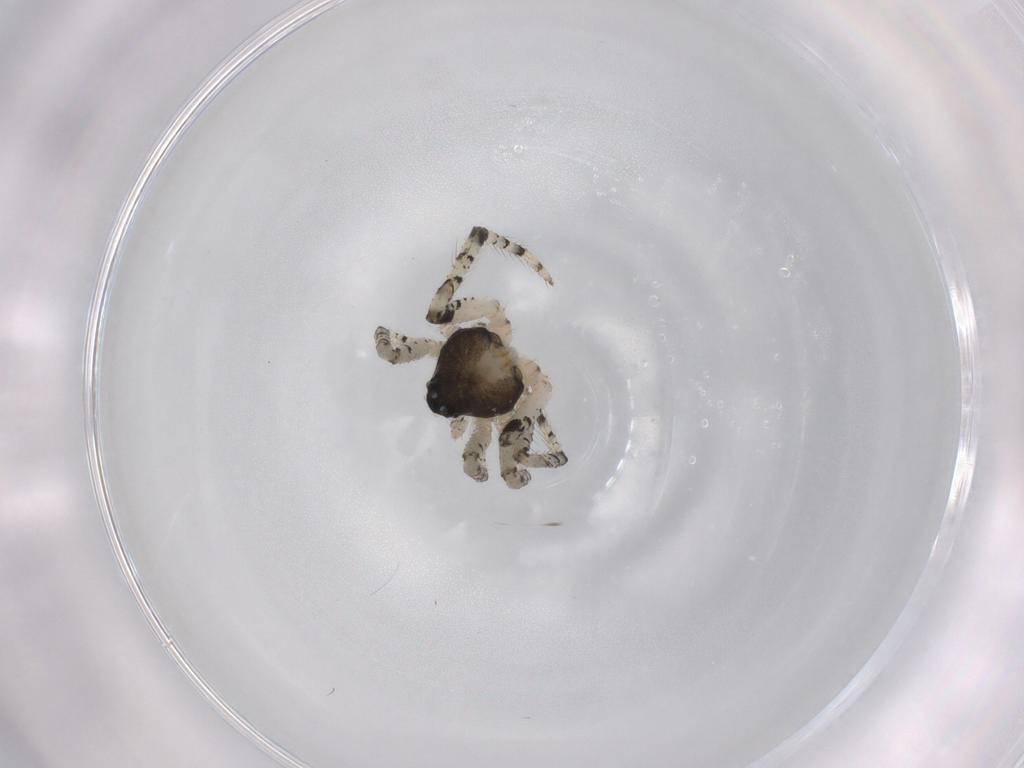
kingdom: Animalia
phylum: Arthropoda
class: Arachnida
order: Araneae
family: Theridiidae
